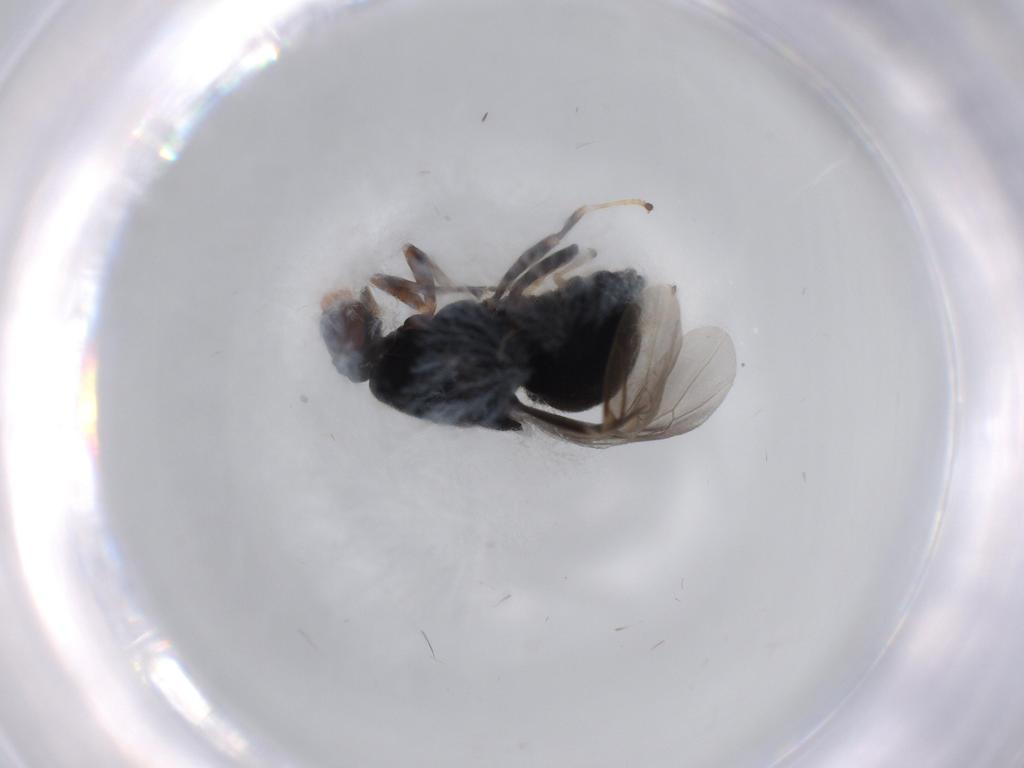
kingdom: Animalia
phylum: Arthropoda
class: Insecta
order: Diptera
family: Stratiomyidae
